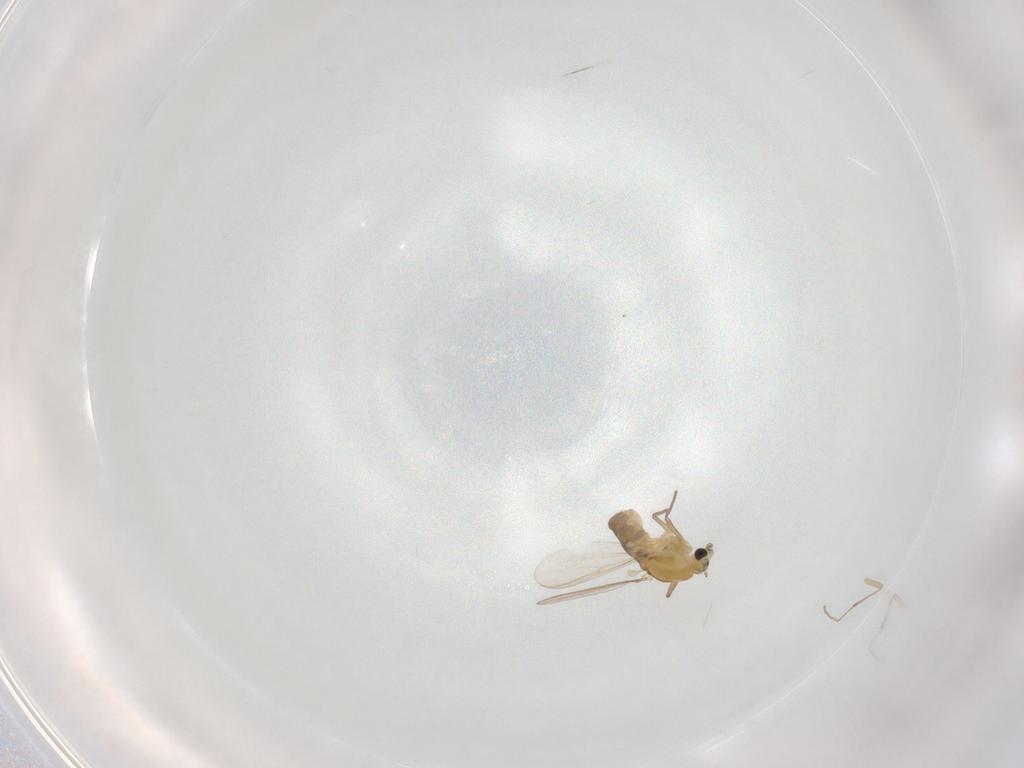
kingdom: Animalia
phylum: Arthropoda
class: Insecta
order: Diptera
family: Chironomidae
